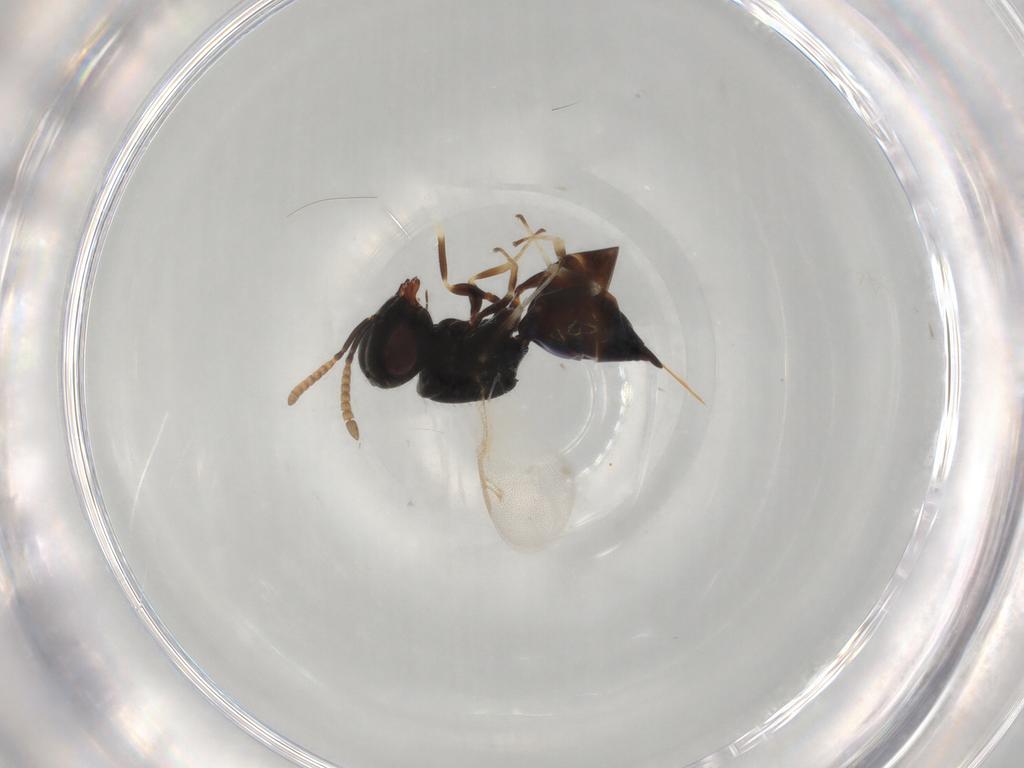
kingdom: Animalia
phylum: Arthropoda
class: Insecta
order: Hymenoptera
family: Pteromalidae
